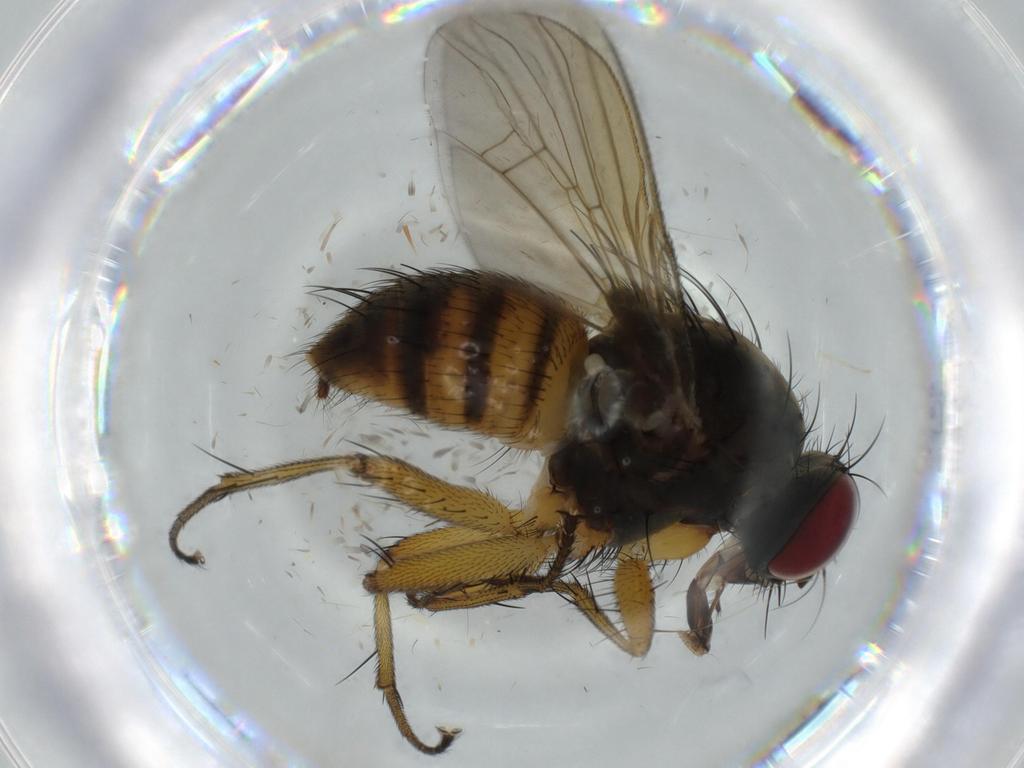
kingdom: Animalia
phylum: Arthropoda
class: Insecta
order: Diptera
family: Muscidae
